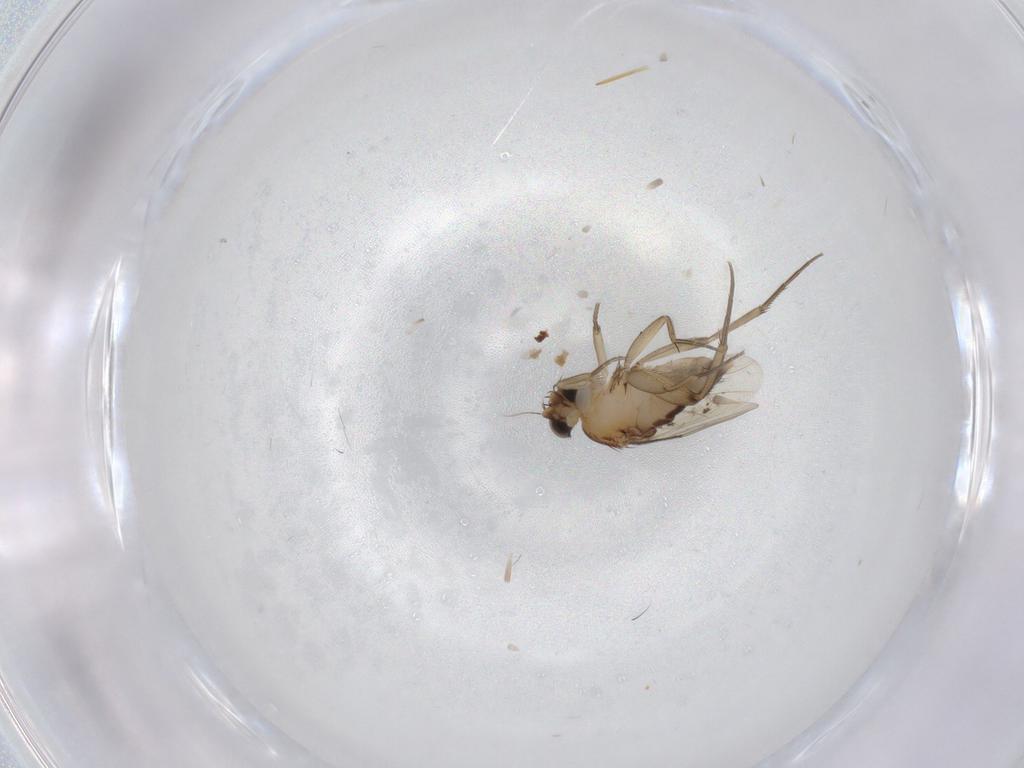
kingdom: Animalia
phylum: Arthropoda
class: Insecta
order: Diptera
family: Phoridae
